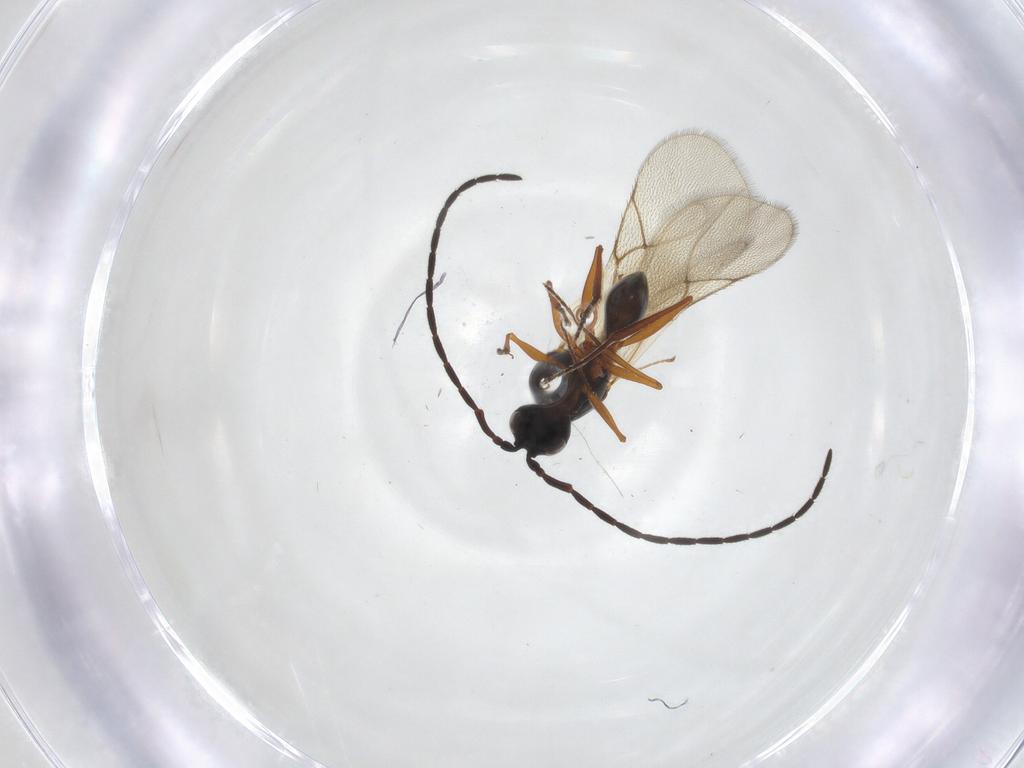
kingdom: Animalia
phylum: Arthropoda
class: Insecta
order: Hymenoptera
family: Figitidae
